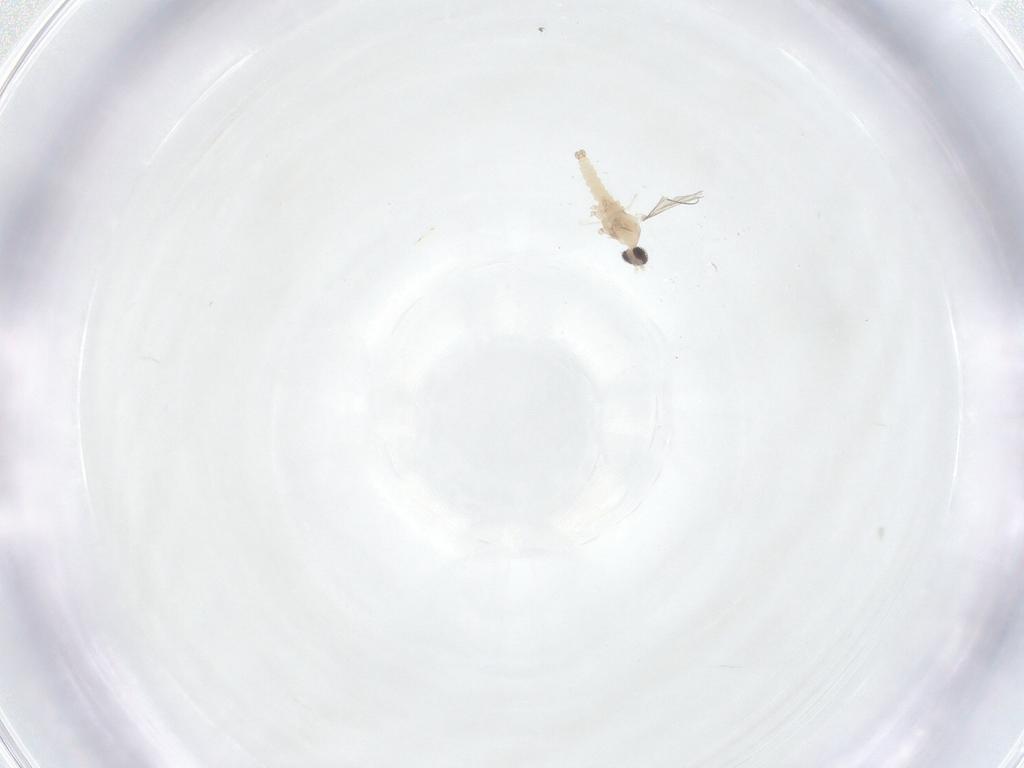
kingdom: Animalia
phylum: Arthropoda
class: Insecta
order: Diptera
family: Cecidomyiidae
